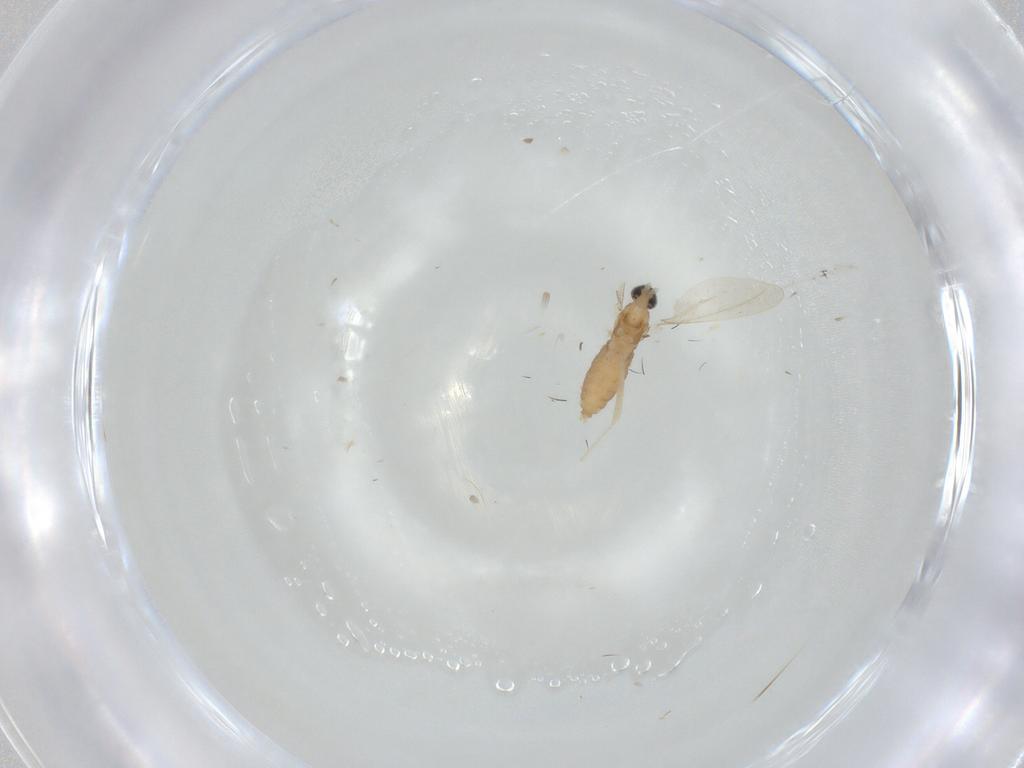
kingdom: Animalia
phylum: Arthropoda
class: Insecta
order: Diptera
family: Cecidomyiidae
